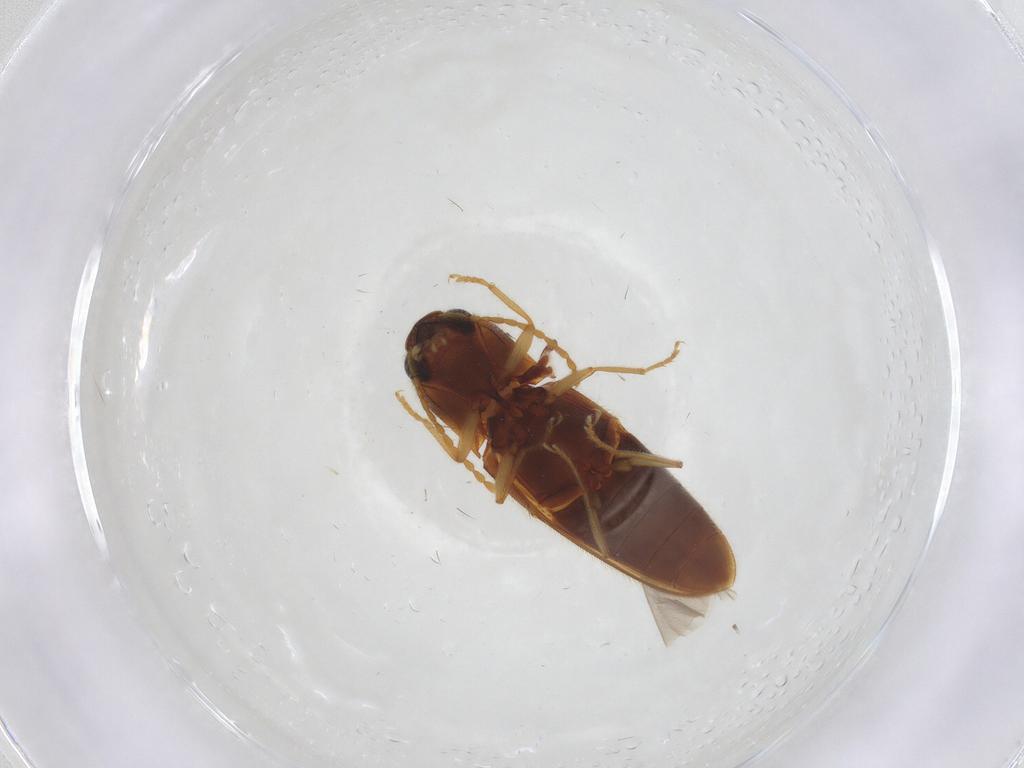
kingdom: Animalia
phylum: Arthropoda
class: Insecta
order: Coleoptera
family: Elateridae
